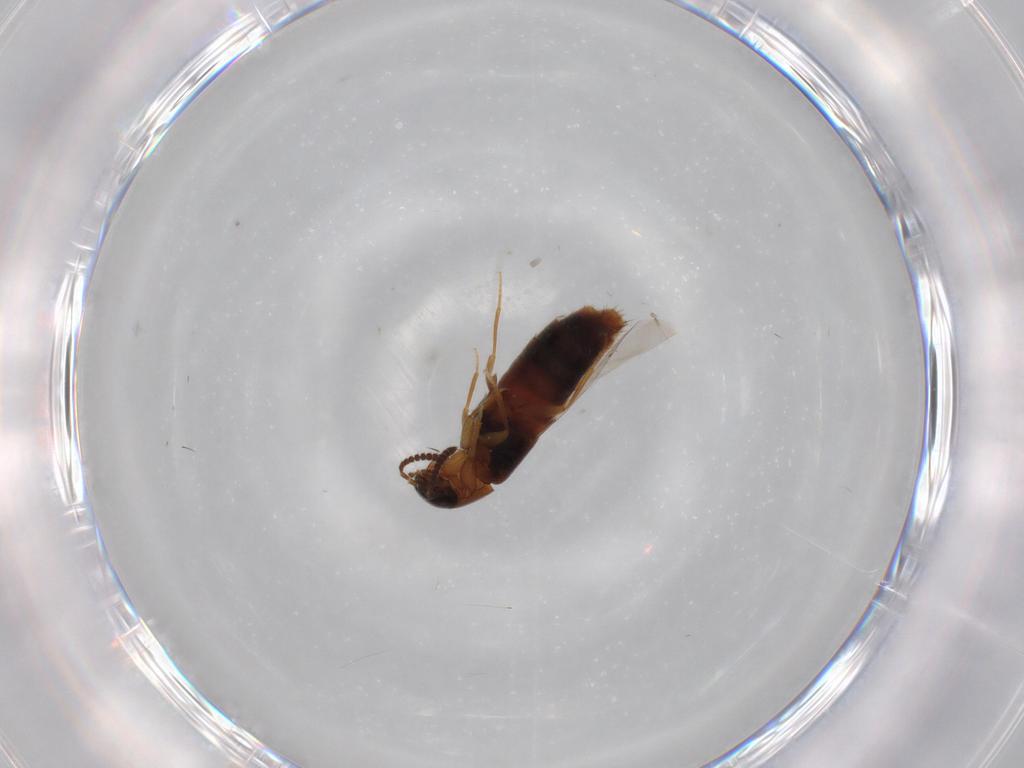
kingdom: Animalia
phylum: Arthropoda
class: Insecta
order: Coleoptera
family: Staphylinidae
